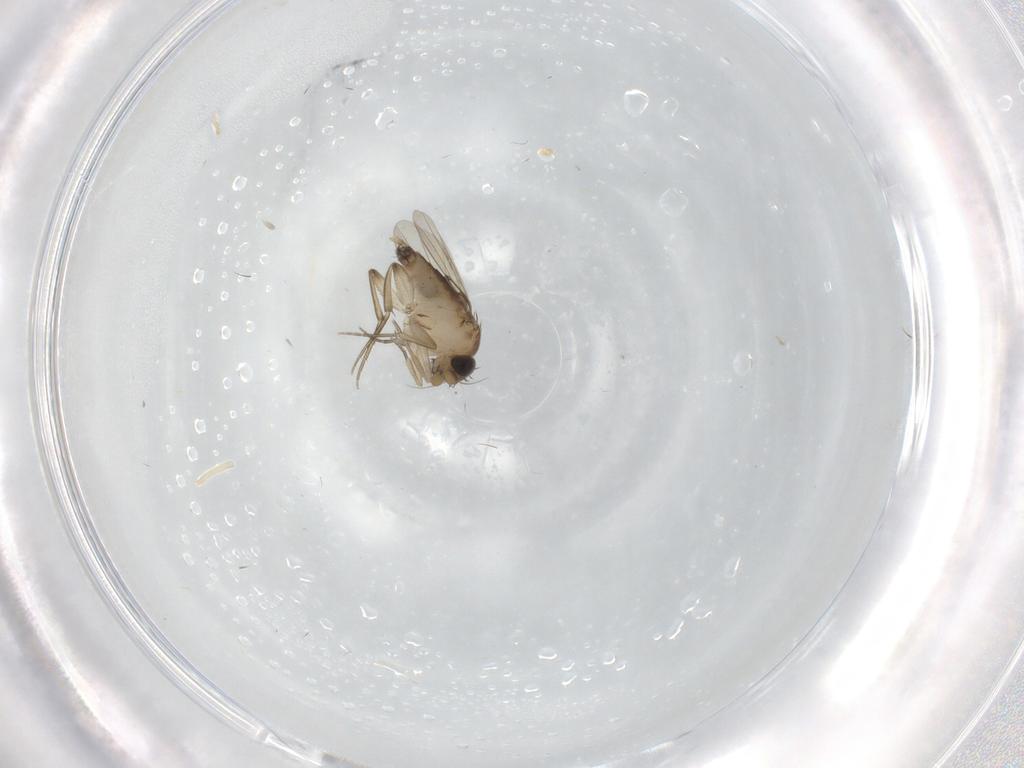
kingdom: Animalia
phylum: Arthropoda
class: Insecta
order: Diptera
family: Phoridae
